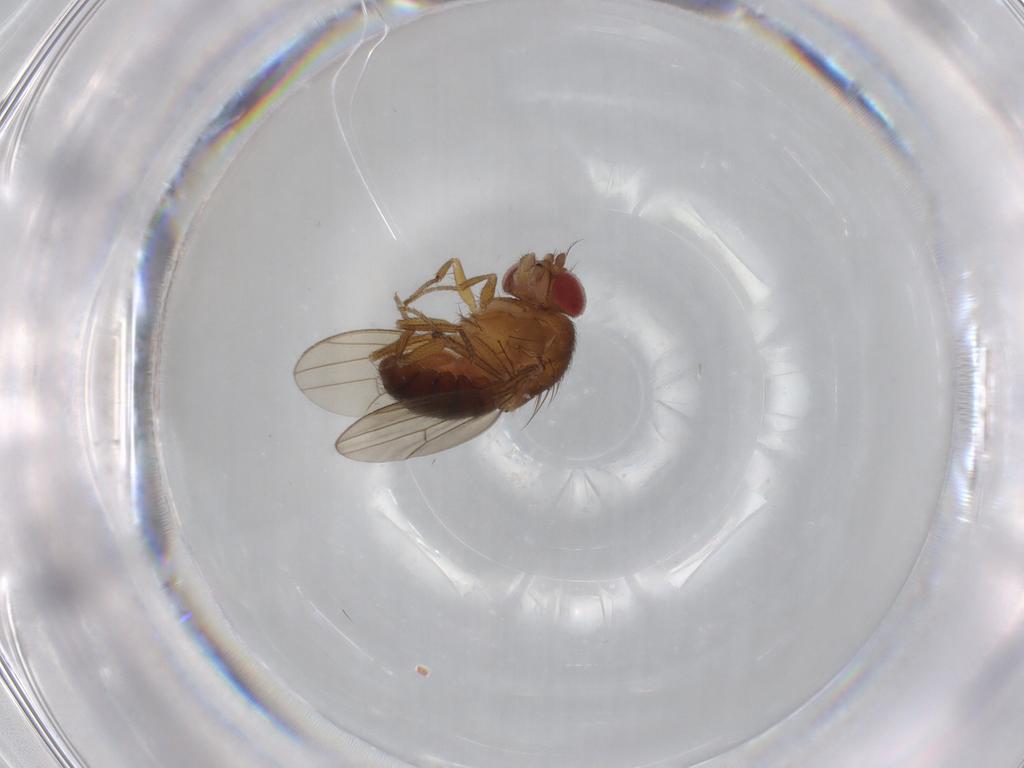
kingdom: Animalia
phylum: Arthropoda
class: Insecta
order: Diptera
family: Drosophilidae
